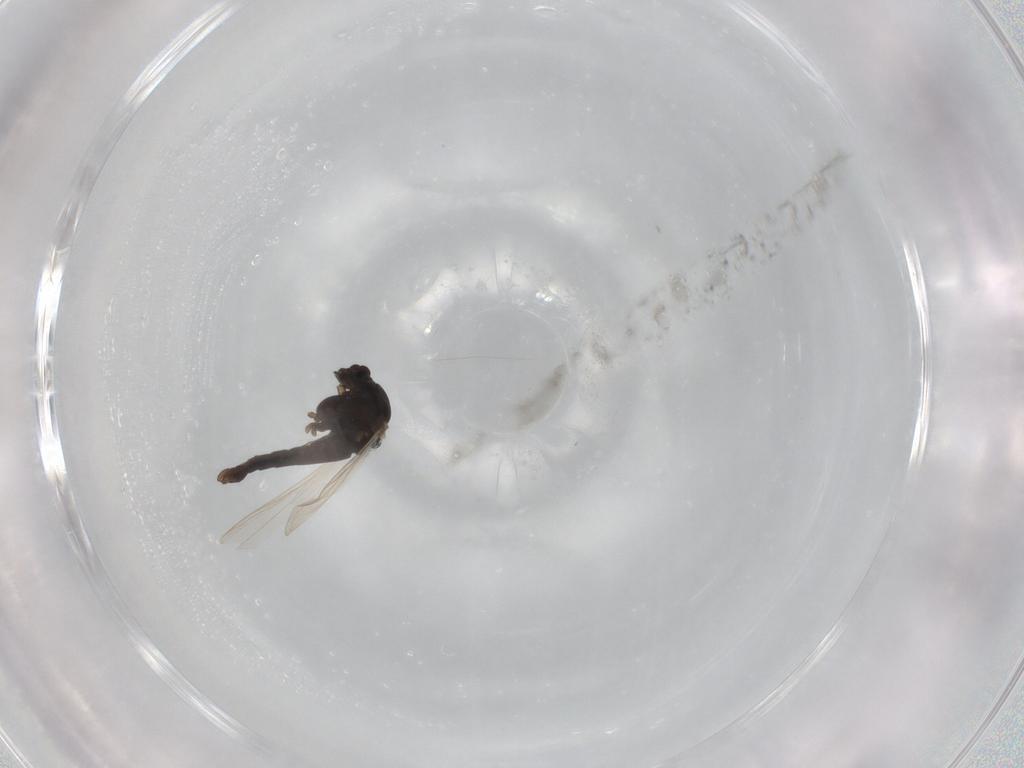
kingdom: Animalia
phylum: Arthropoda
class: Insecta
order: Diptera
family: Chironomidae
